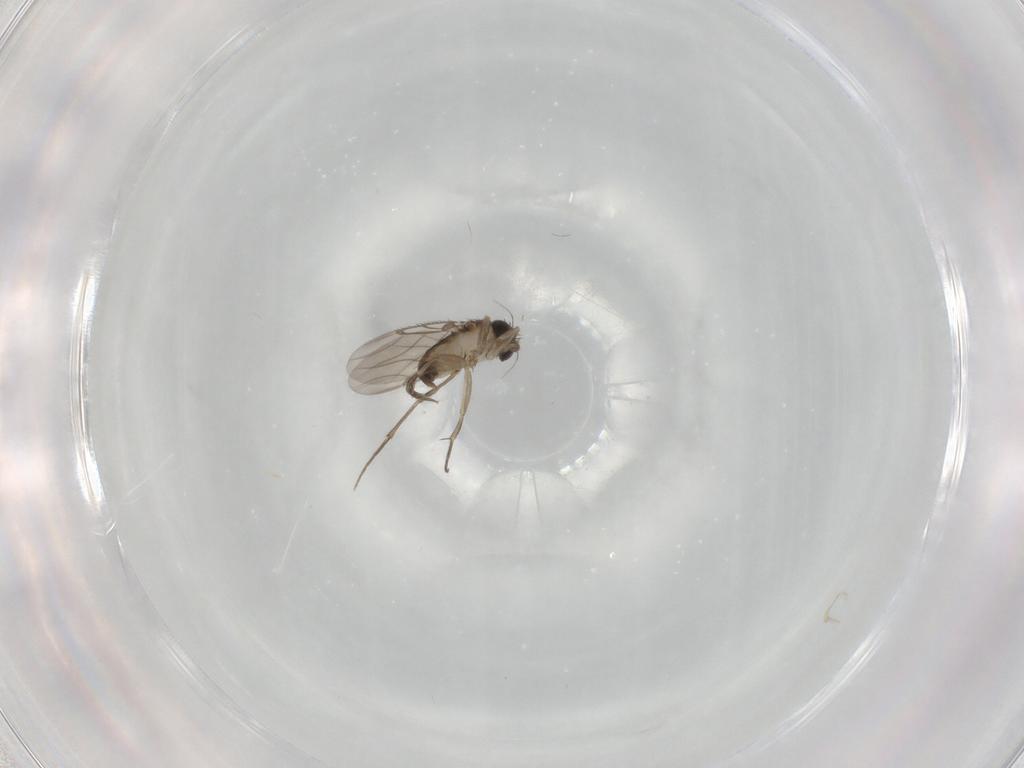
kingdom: Animalia
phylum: Arthropoda
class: Insecta
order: Diptera
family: Phoridae
